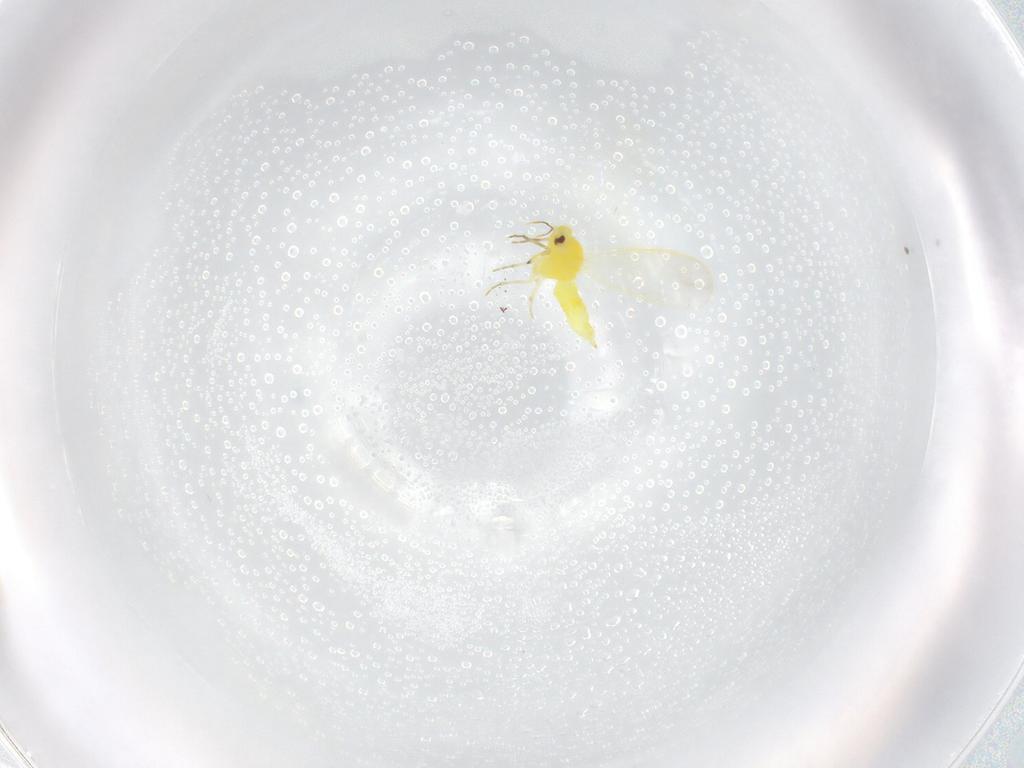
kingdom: Animalia
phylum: Arthropoda
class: Insecta
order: Hemiptera
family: Aleyrodidae
